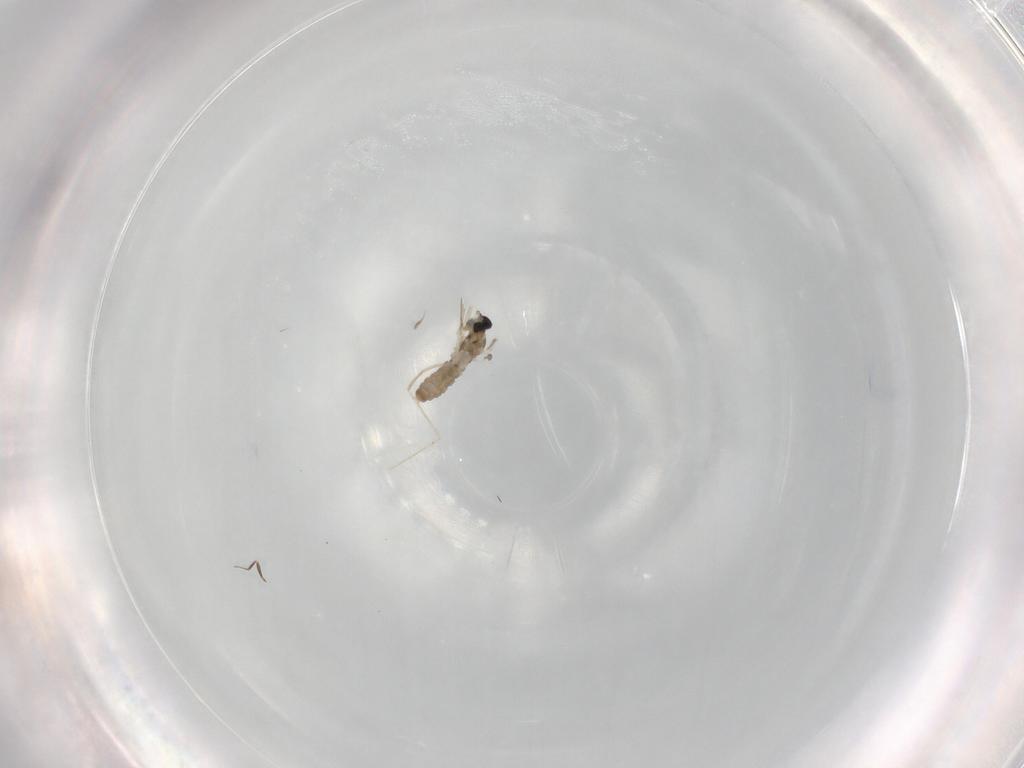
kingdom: Animalia
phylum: Arthropoda
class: Insecta
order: Diptera
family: Cecidomyiidae
